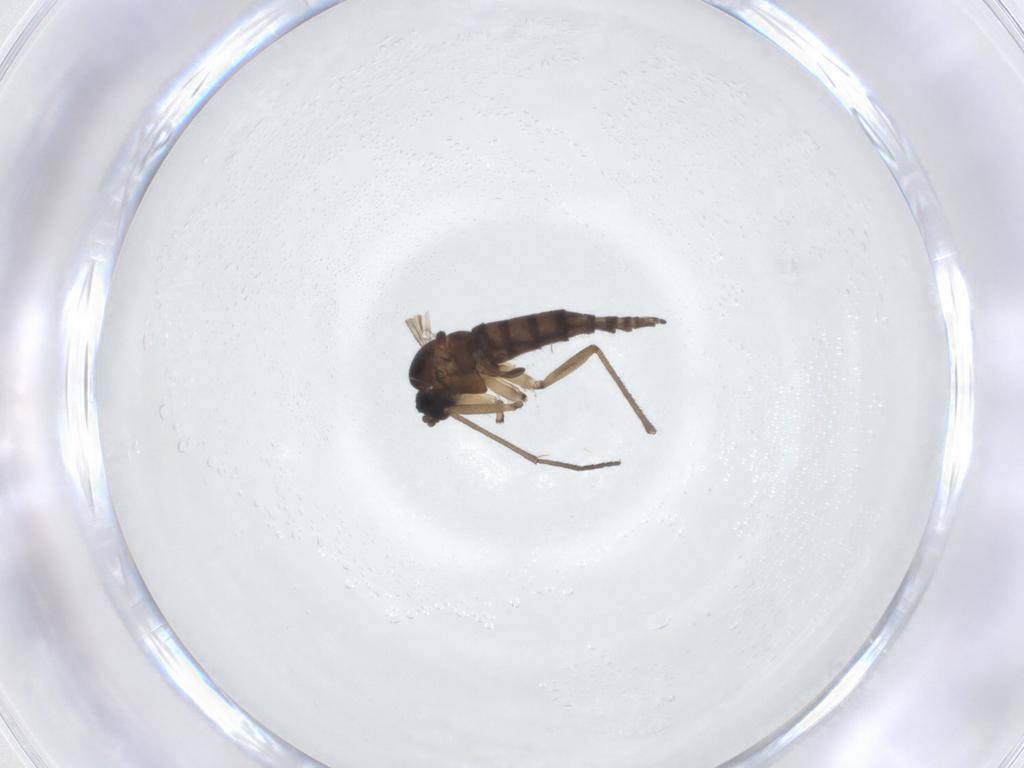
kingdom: Animalia
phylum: Arthropoda
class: Insecta
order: Diptera
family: Sciaridae
